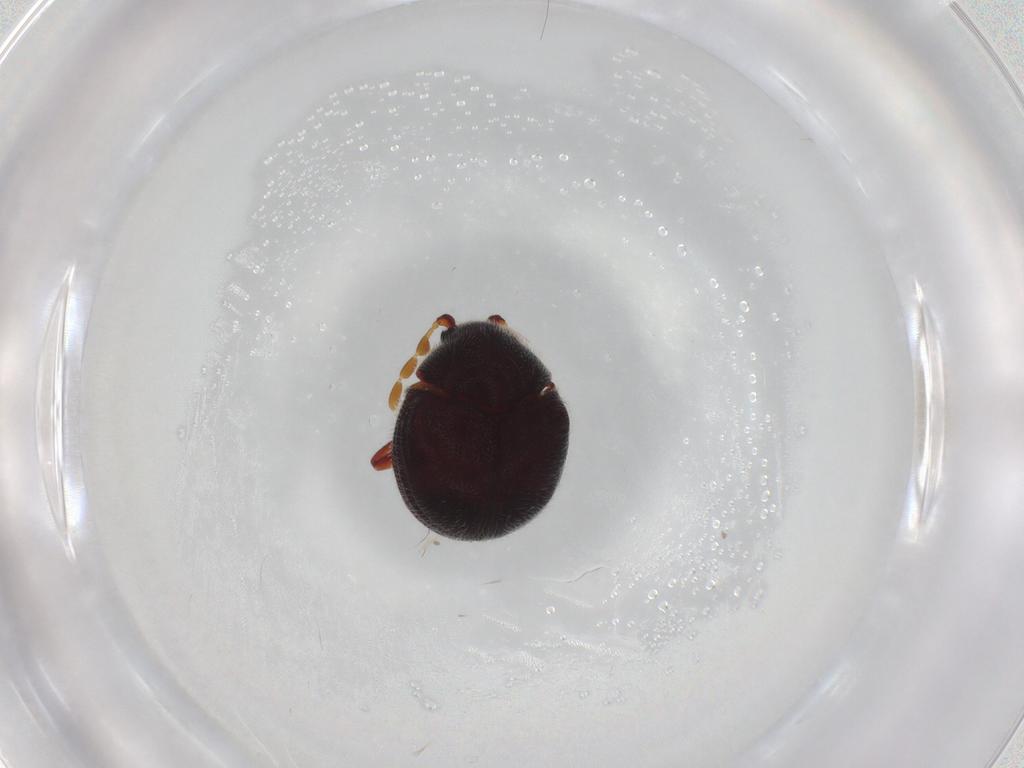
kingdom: Animalia
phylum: Arthropoda
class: Insecta
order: Coleoptera
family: Ptinidae
